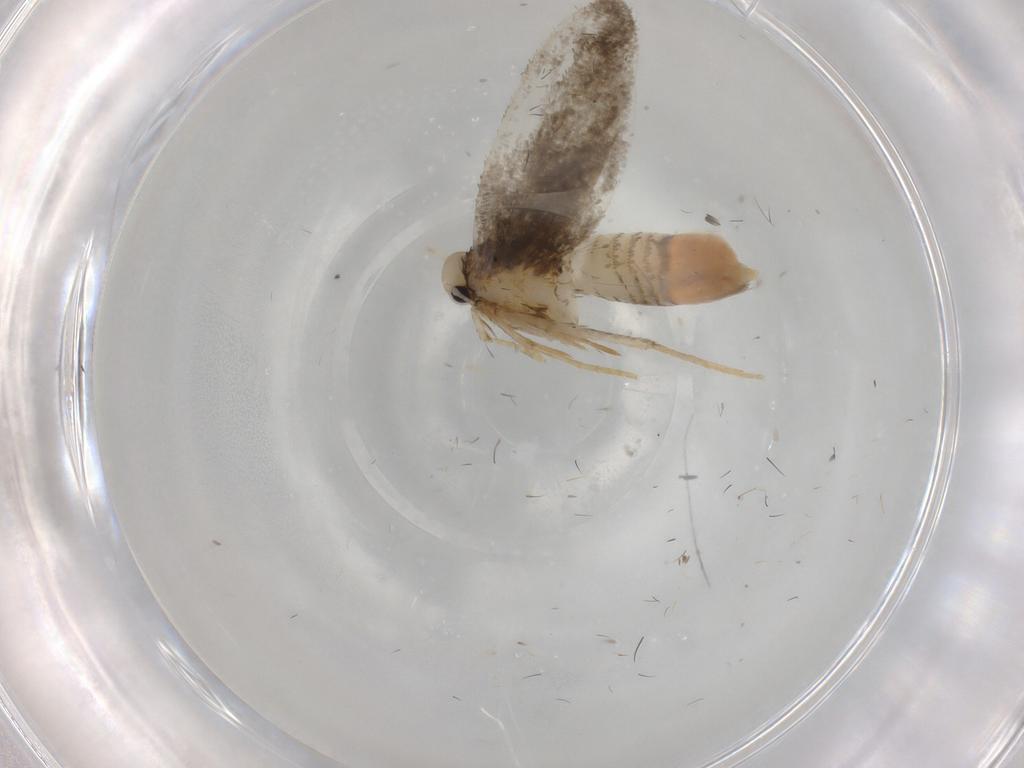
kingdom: Animalia
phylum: Arthropoda
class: Insecta
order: Lepidoptera
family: Psychidae
